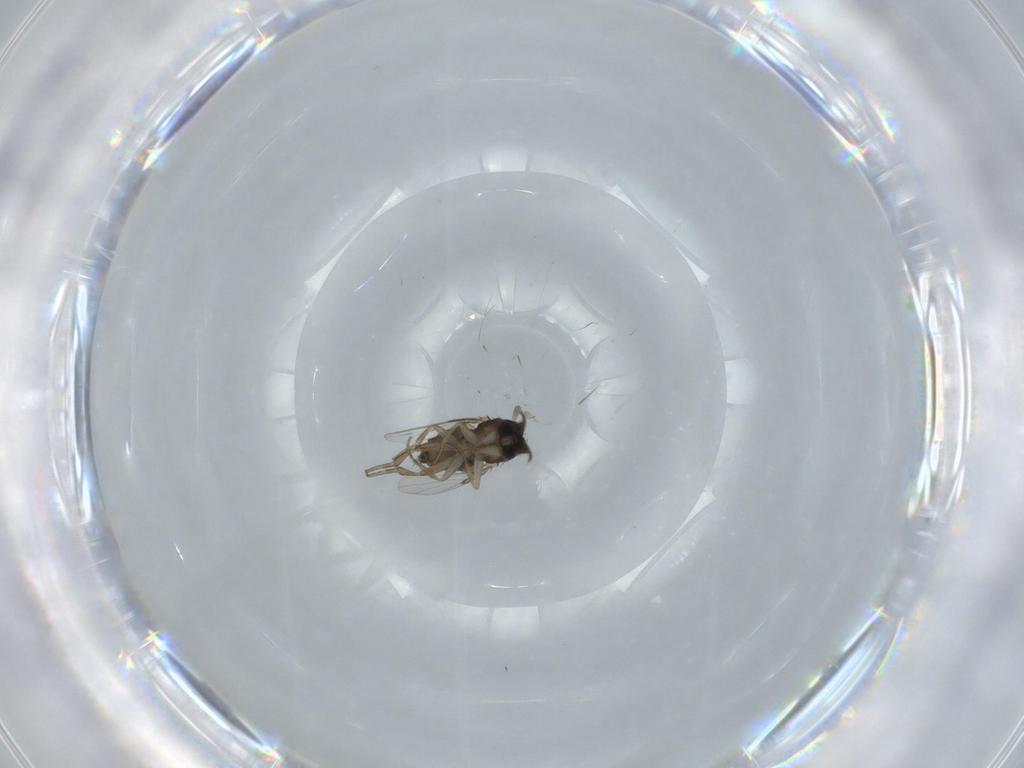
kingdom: Animalia
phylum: Arthropoda
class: Insecta
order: Diptera
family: Phoridae
